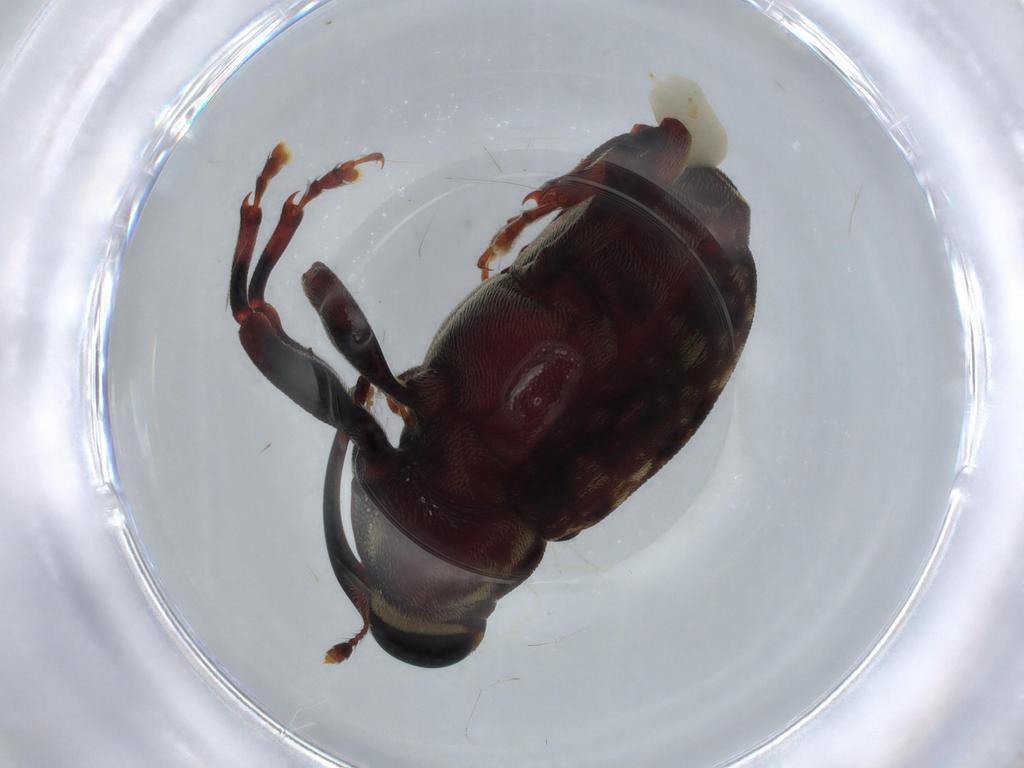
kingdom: Animalia
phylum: Arthropoda
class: Insecta
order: Coleoptera
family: Curculionidae
